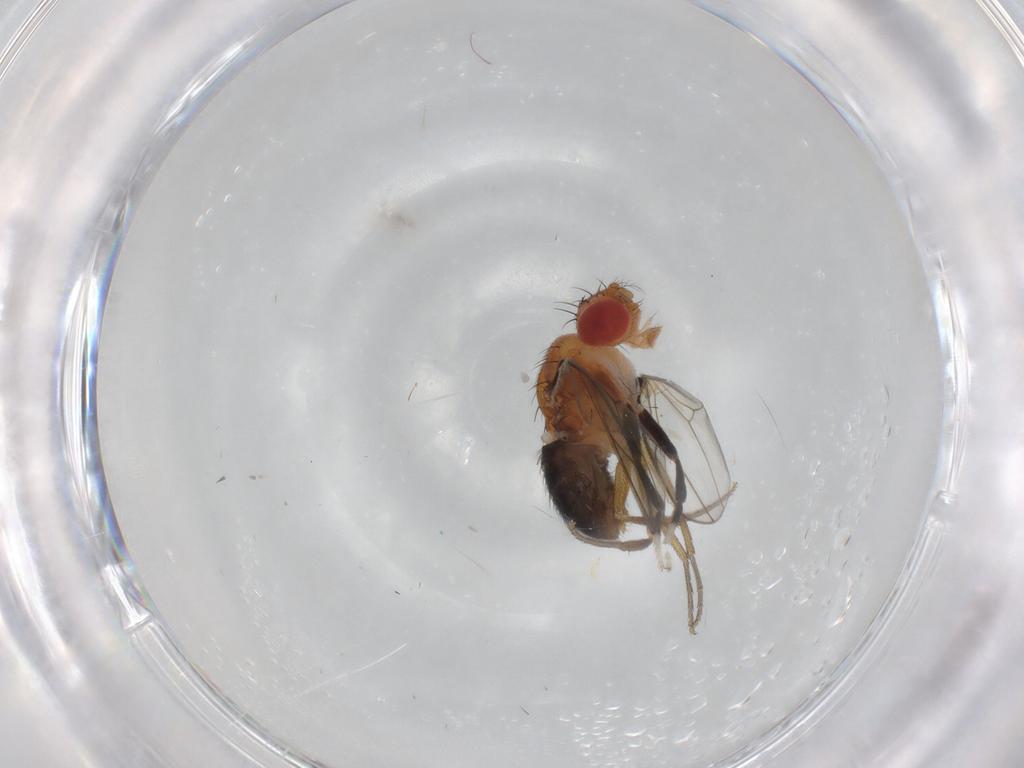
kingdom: Animalia
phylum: Arthropoda
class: Insecta
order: Diptera
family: Drosophilidae
